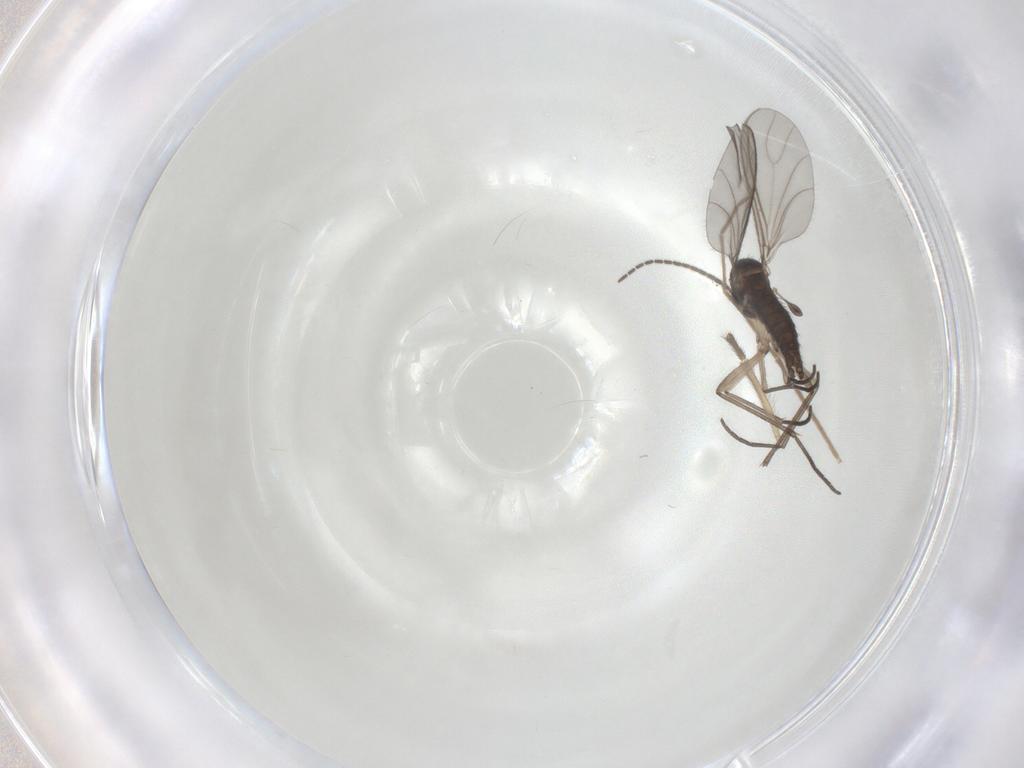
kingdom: Animalia
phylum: Arthropoda
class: Insecta
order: Diptera
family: Sciaridae
